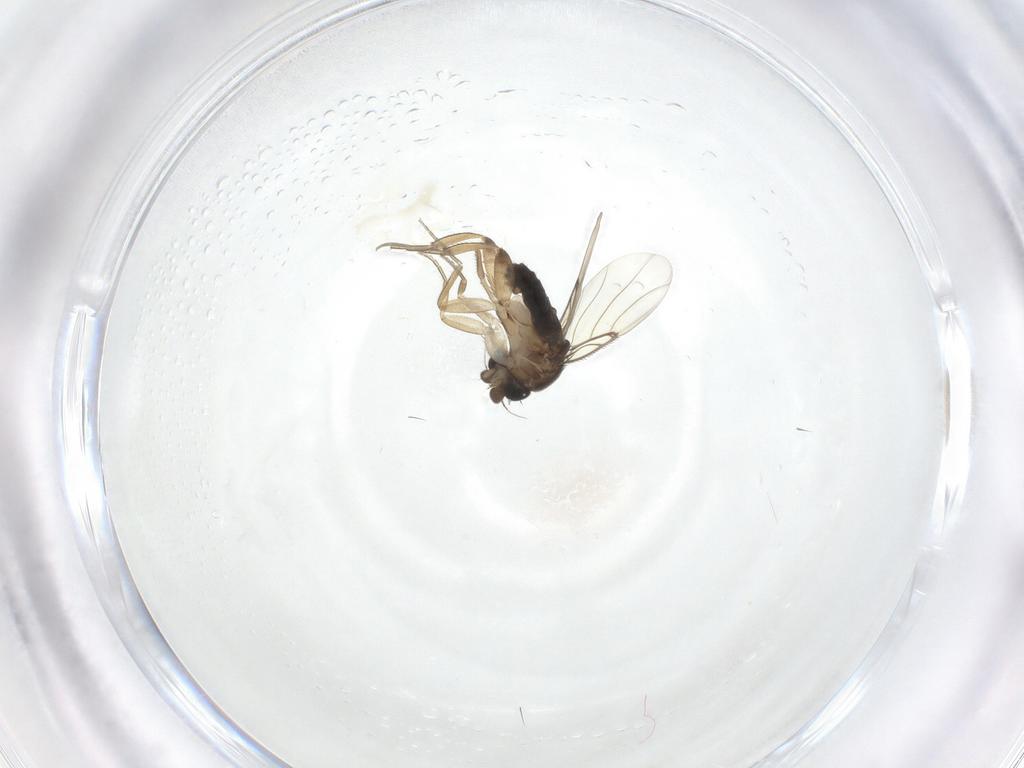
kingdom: Animalia
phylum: Arthropoda
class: Insecta
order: Diptera
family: Phoridae
